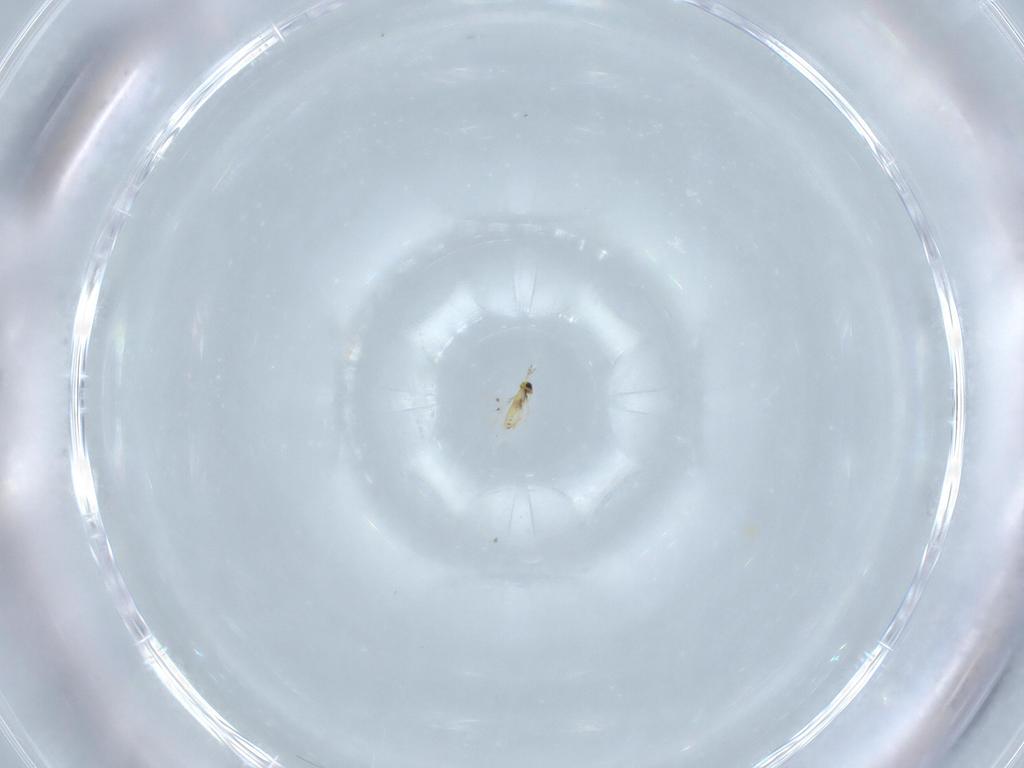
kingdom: Animalia
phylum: Arthropoda
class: Insecta
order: Hymenoptera
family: Trichogrammatidae
